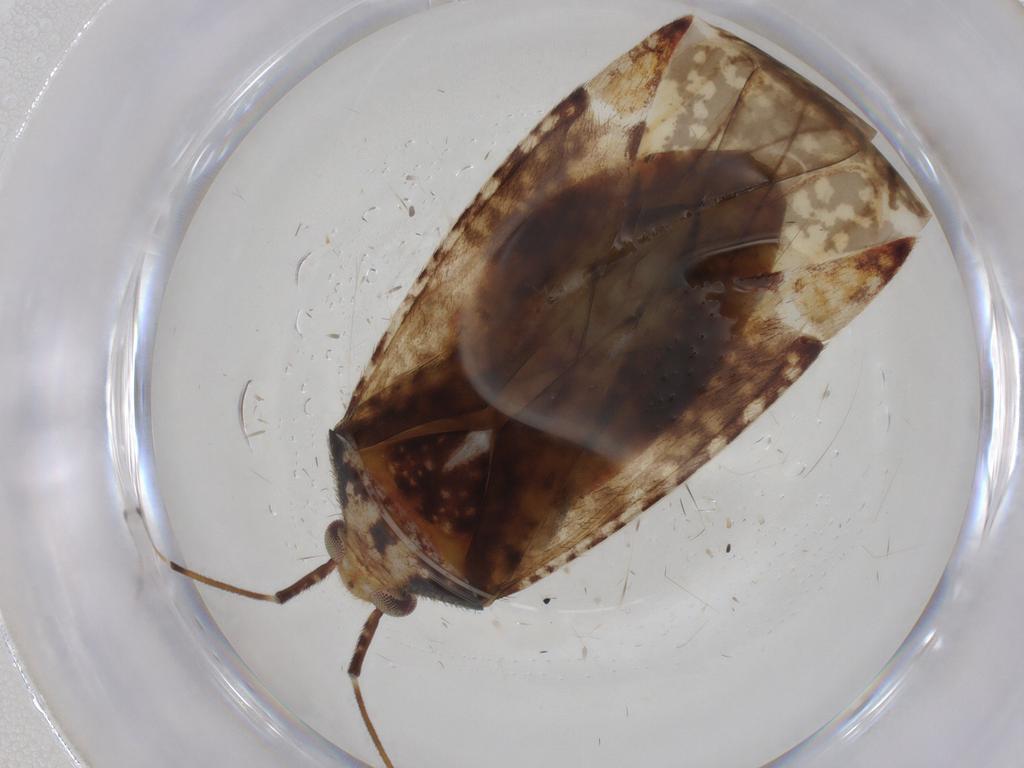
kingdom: Animalia
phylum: Arthropoda
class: Insecta
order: Hemiptera
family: Miridae
